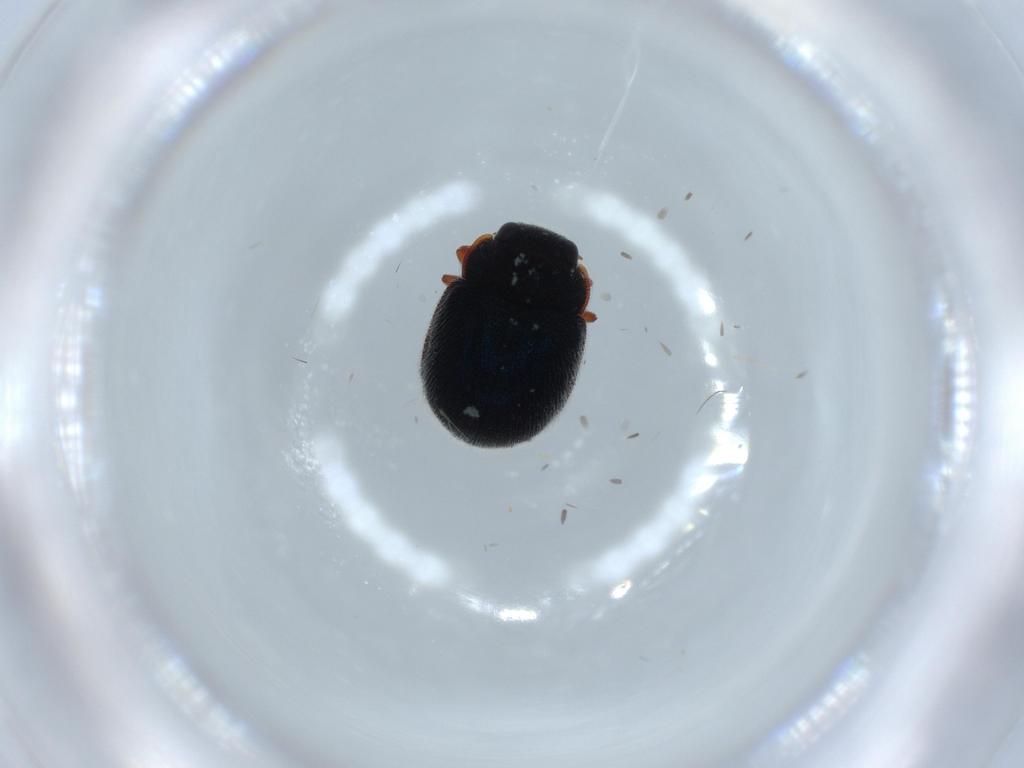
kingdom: Animalia
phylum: Arthropoda
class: Insecta
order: Coleoptera
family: Coccinellidae
